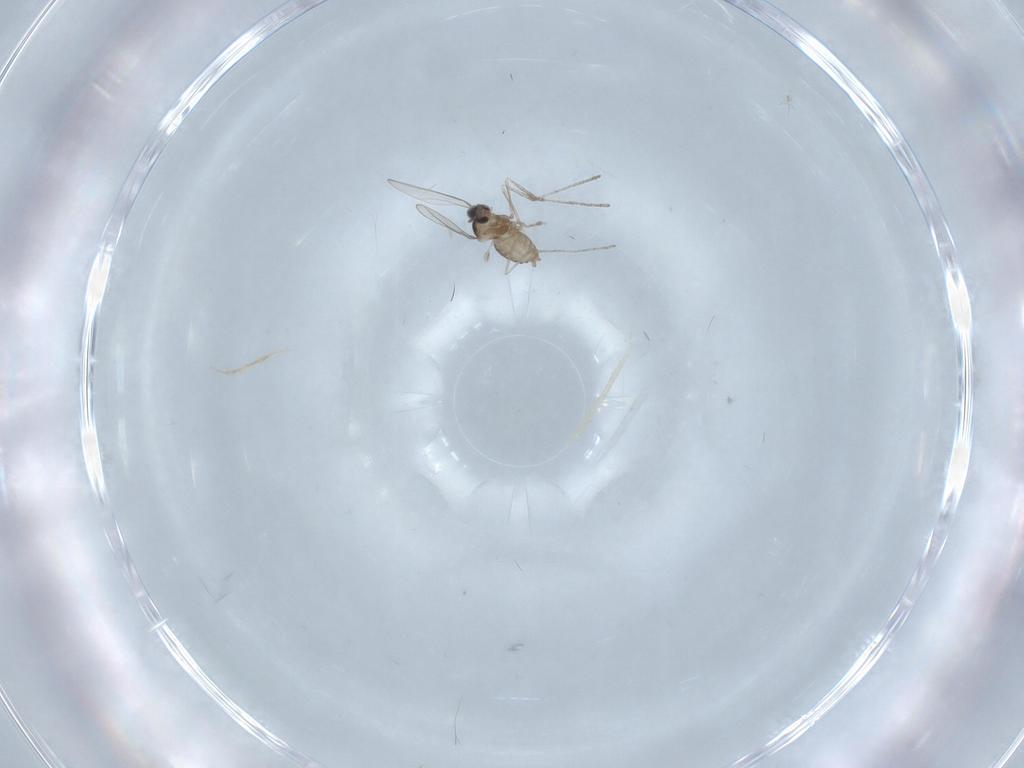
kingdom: Animalia
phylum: Arthropoda
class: Insecta
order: Diptera
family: Cecidomyiidae
